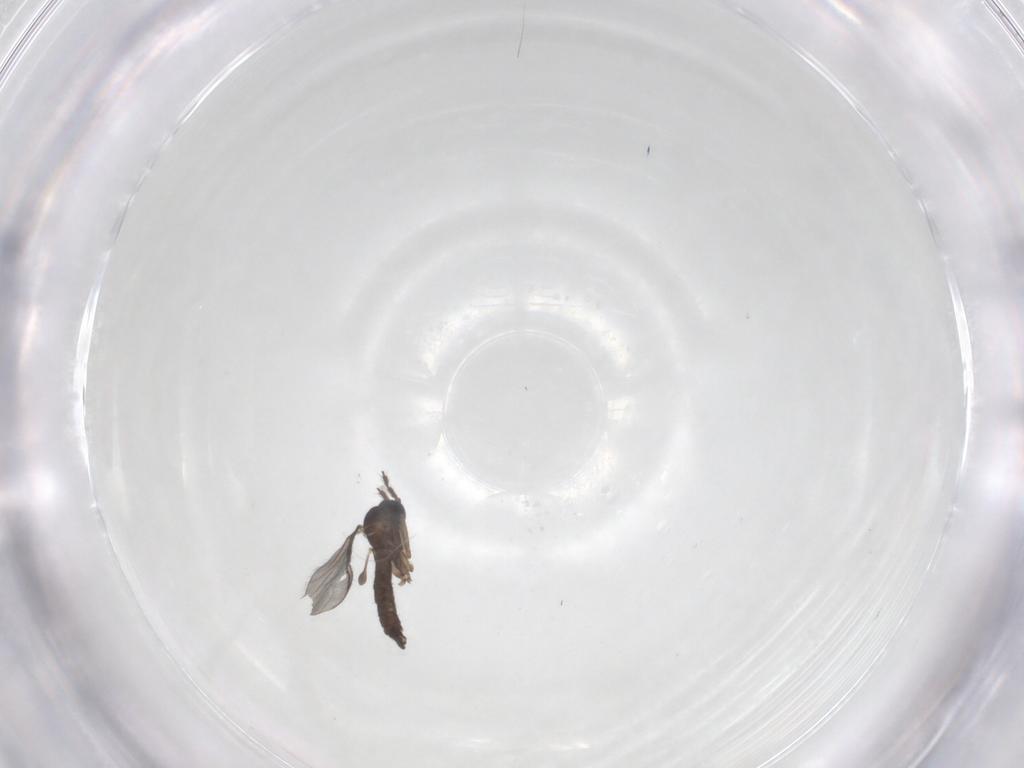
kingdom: Animalia
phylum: Arthropoda
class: Insecta
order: Diptera
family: Sciaridae
